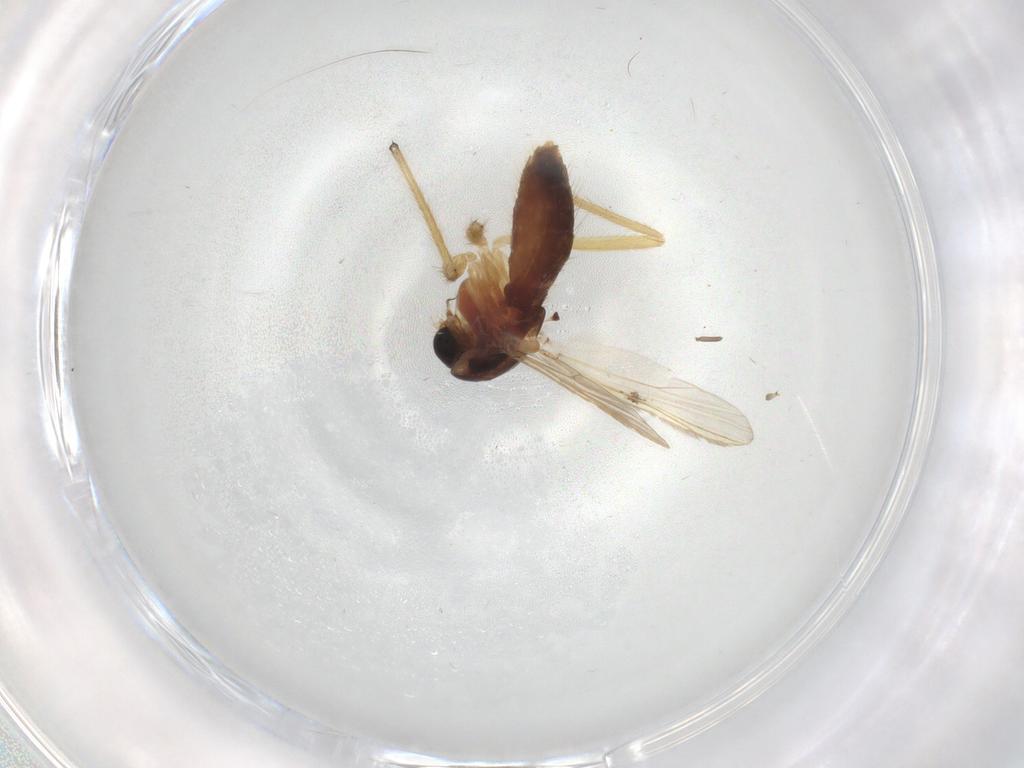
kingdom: Animalia
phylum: Arthropoda
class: Insecta
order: Diptera
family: Chironomidae
